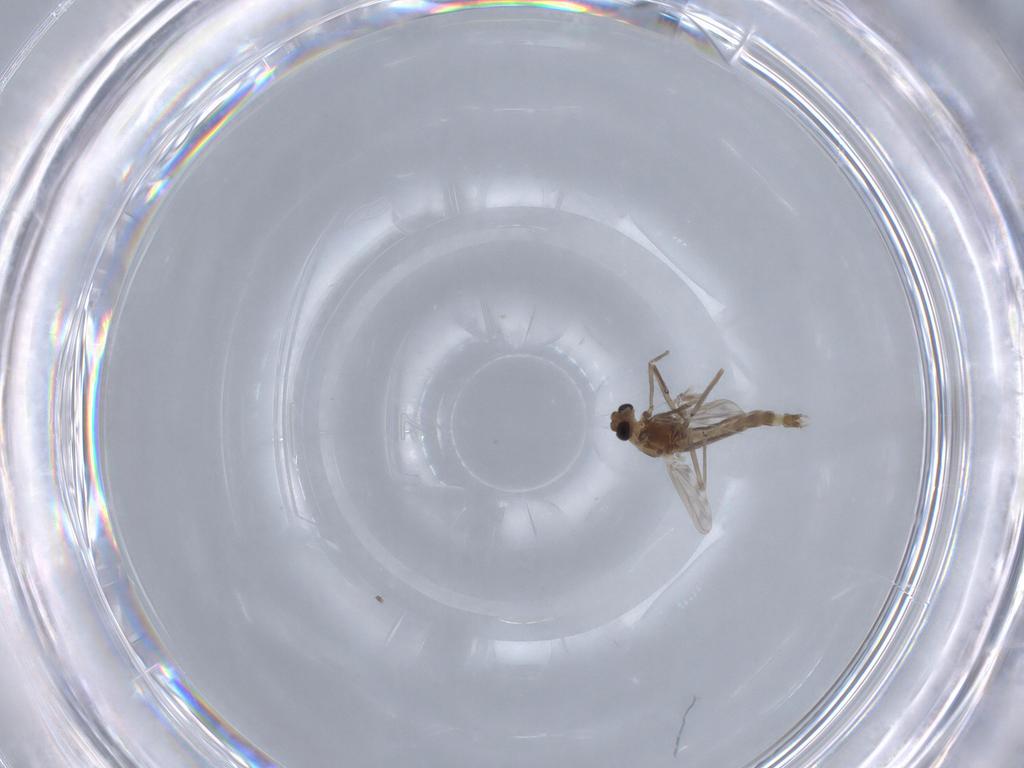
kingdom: Animalia
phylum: Arthropoda
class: Insecta
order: Diptera
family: Chironomidae
